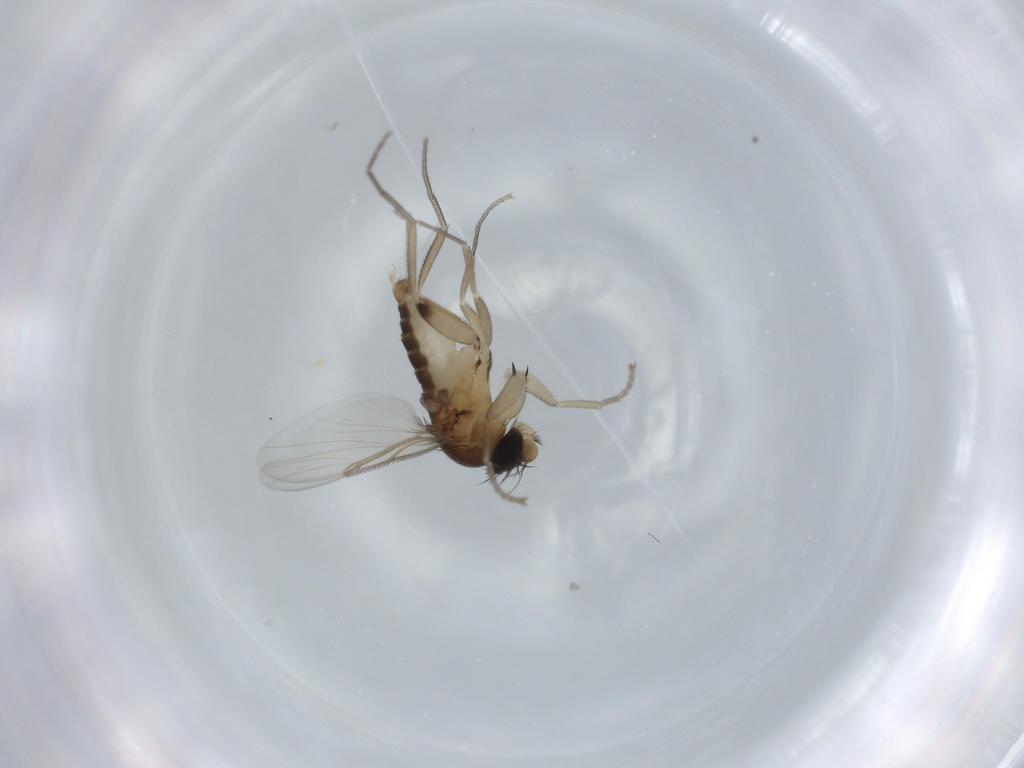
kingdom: Animalia
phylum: Arthropoda
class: Insecta
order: Diptera
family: Phoridae
